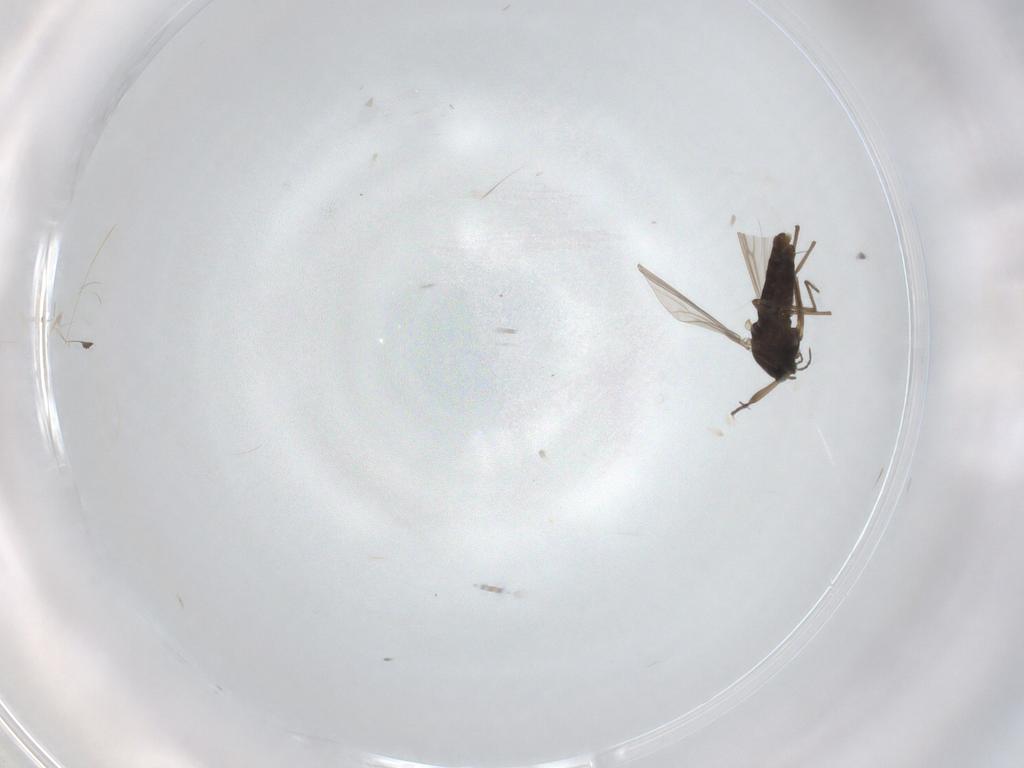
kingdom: Animalia
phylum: Arthropoda
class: Insecta
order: Diptera
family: Chironomidae
